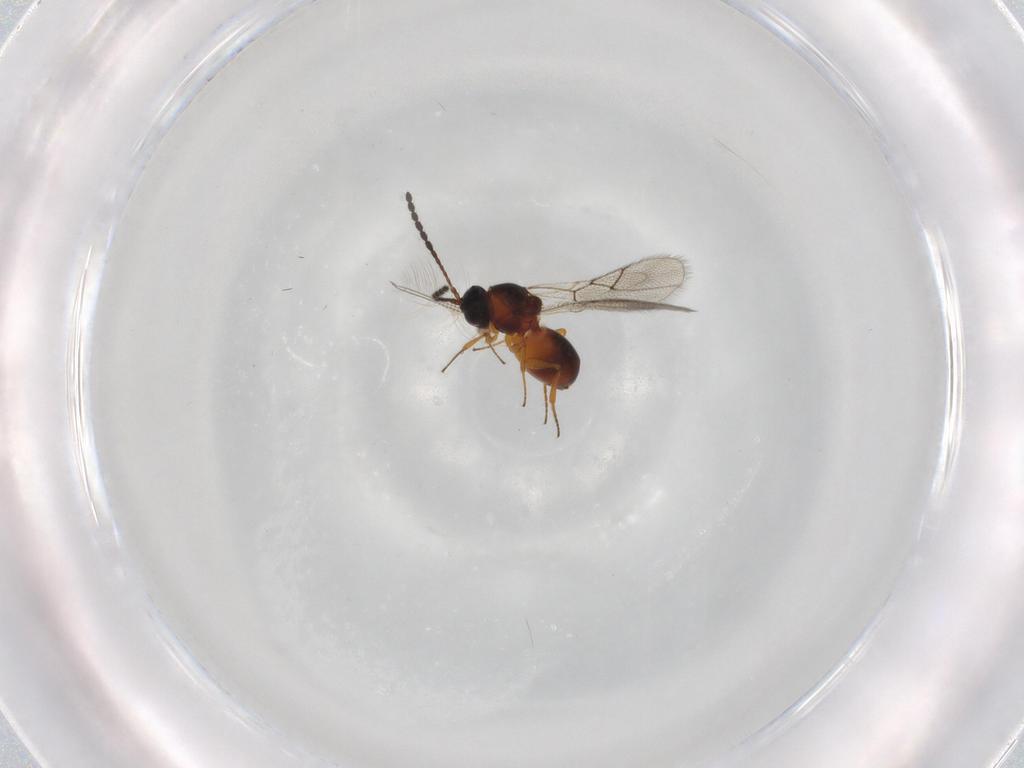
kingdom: Animalia
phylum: Arthropoda
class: Insecta
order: Hymenoptera
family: Figitidae
